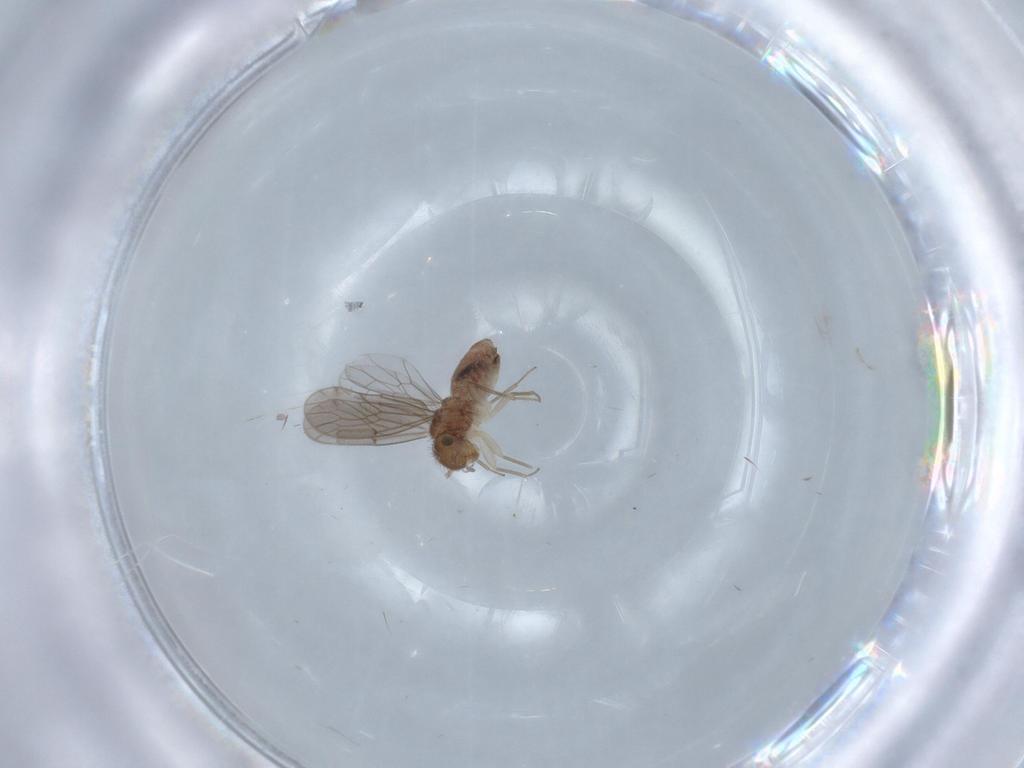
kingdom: Animalia
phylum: Arthropoda
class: Insecta
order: Psocodea
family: Ectopsocidae
